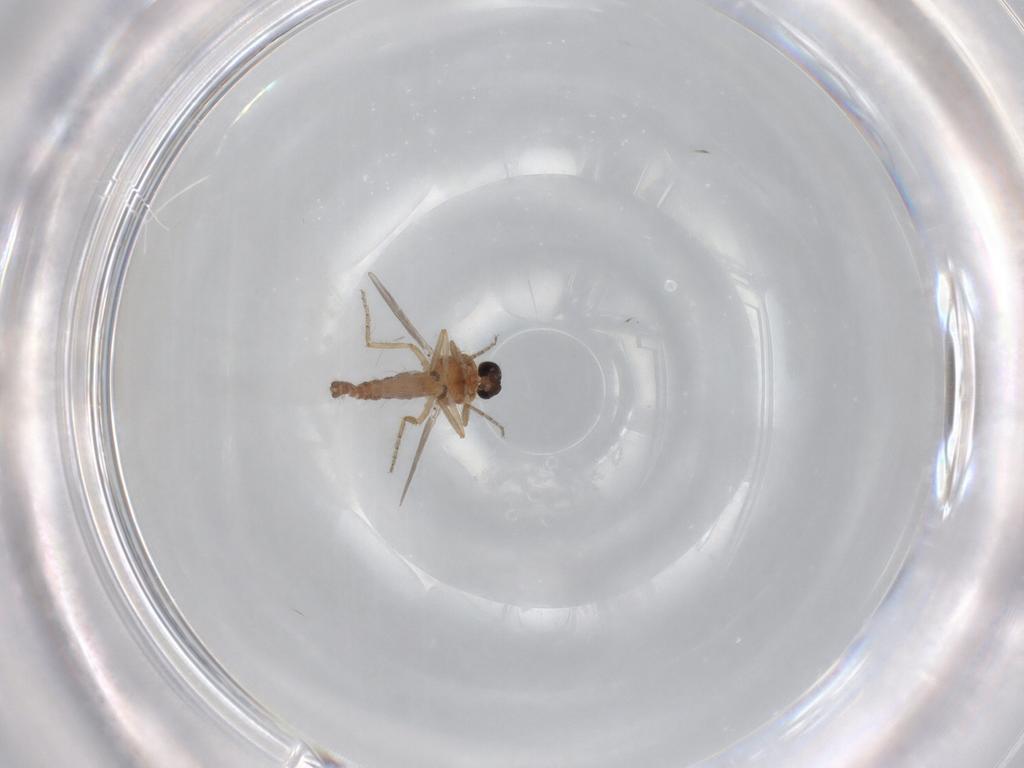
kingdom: Animalia
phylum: Arthropoda
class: Insecta
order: Diptera
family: Ceratopogonidae
